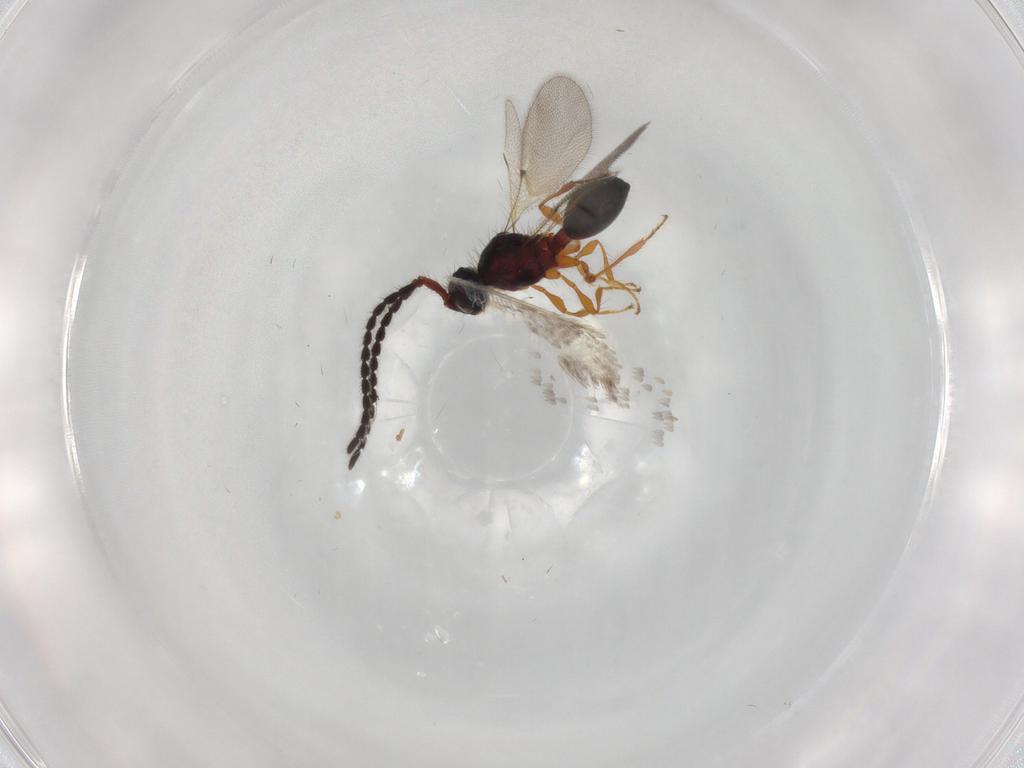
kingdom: Animalia
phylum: Arthropoda
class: Insecta
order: Hymenoptera
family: Diapriidae
